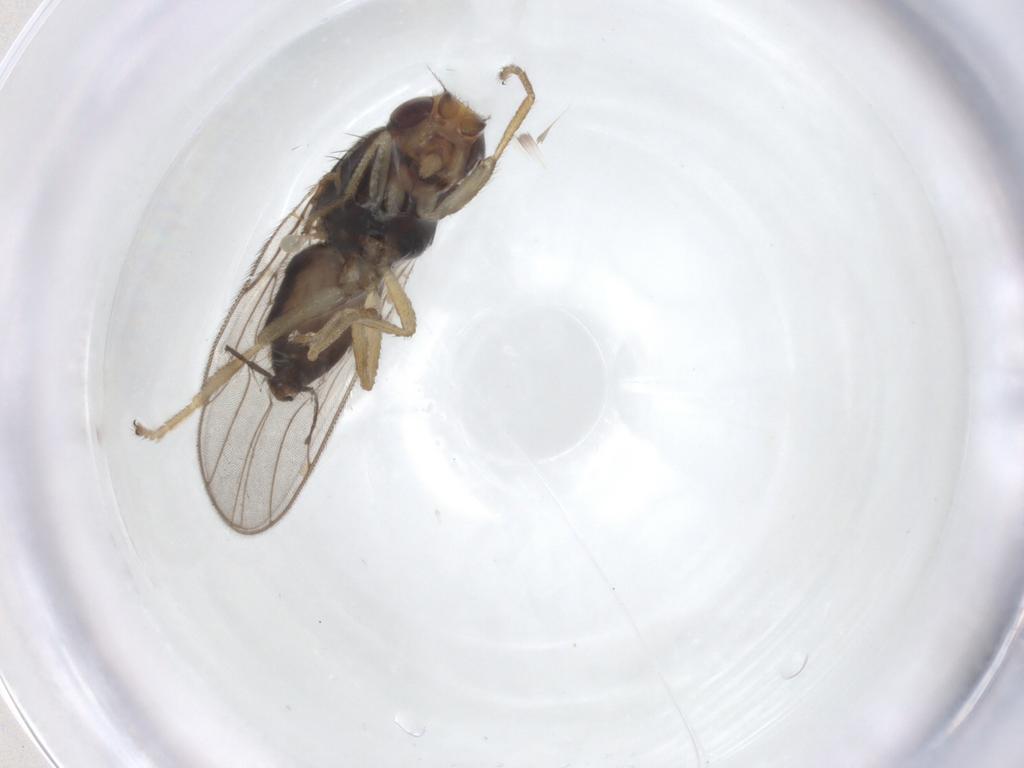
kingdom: Animalia
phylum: Arthropoda
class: Insecta
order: Diptera
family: Chloropidae
